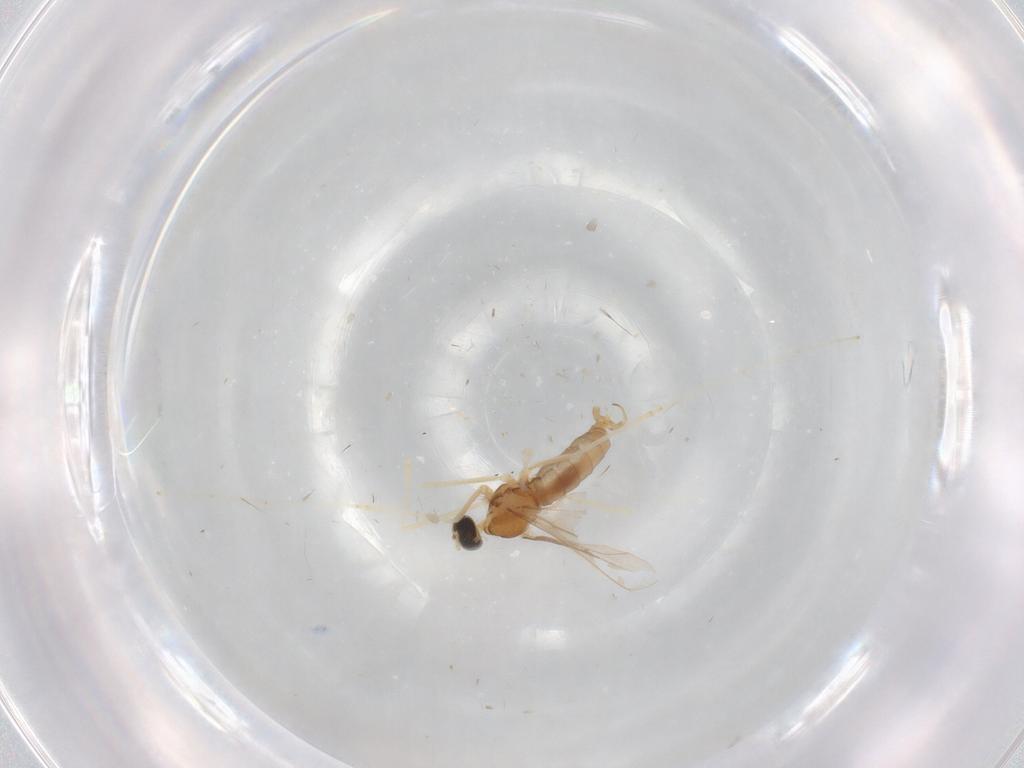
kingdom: Animalia
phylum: Arthropoda
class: Insecta
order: Diptera
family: Cecidomyiidae
